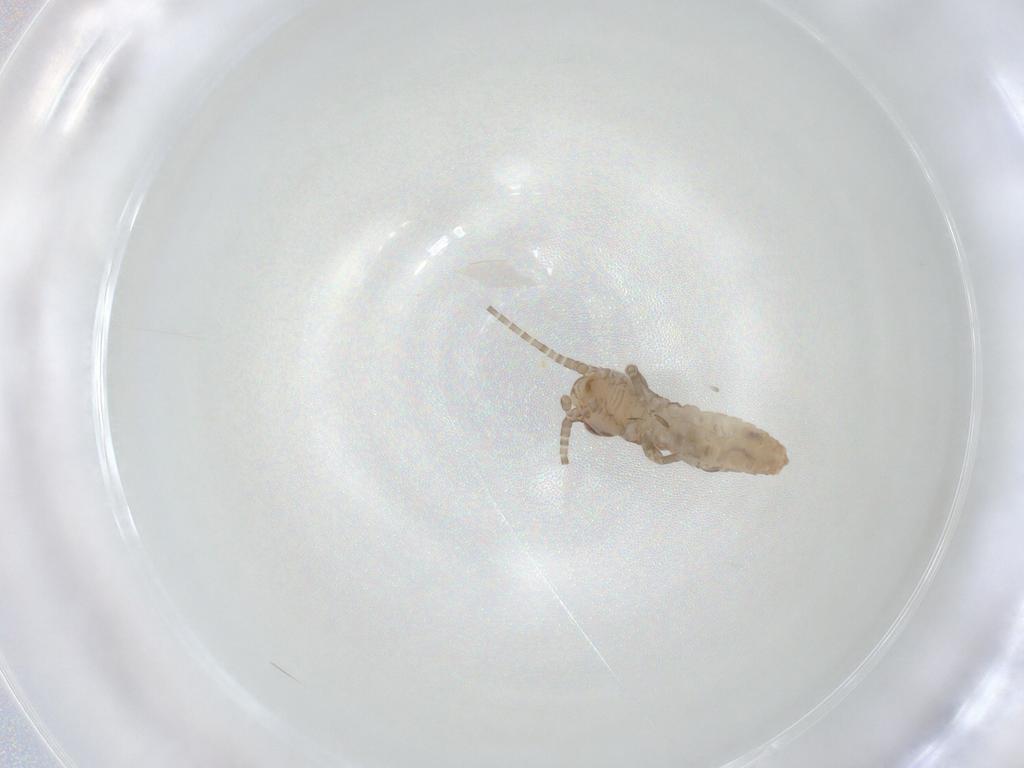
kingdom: Animalia
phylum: Arthropoda
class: Insecta
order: Orthoptera
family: Mogoplistidae
